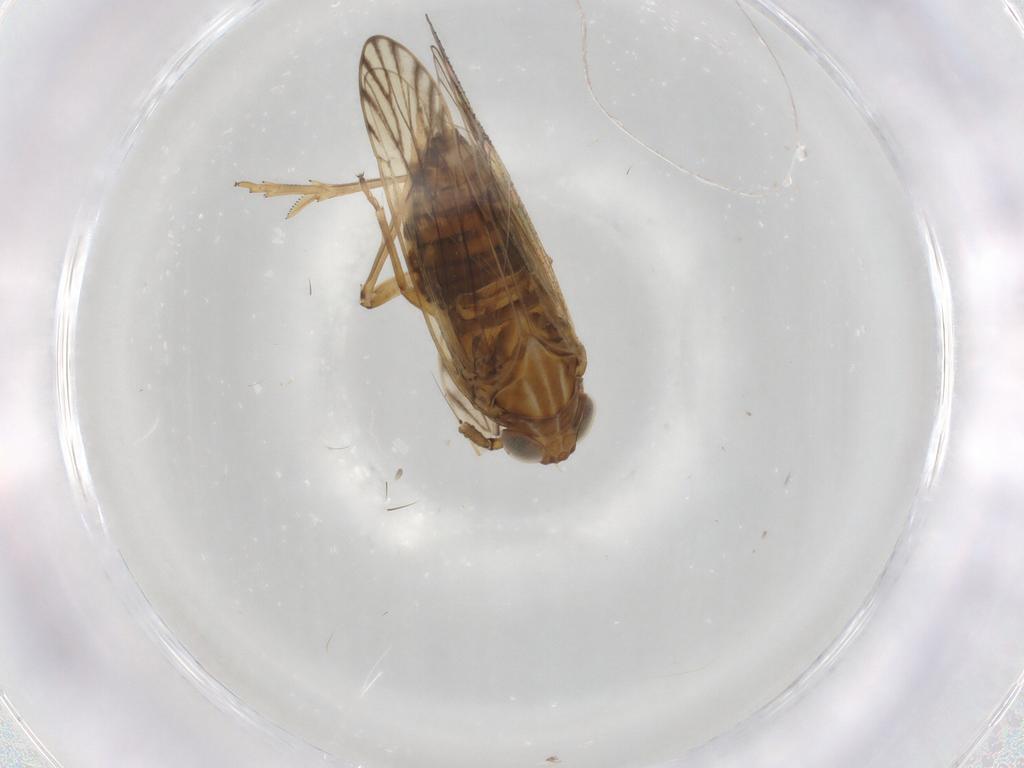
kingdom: Animalia
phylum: Arthropoda
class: Insecta
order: Hemiptera
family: Delphacidae
